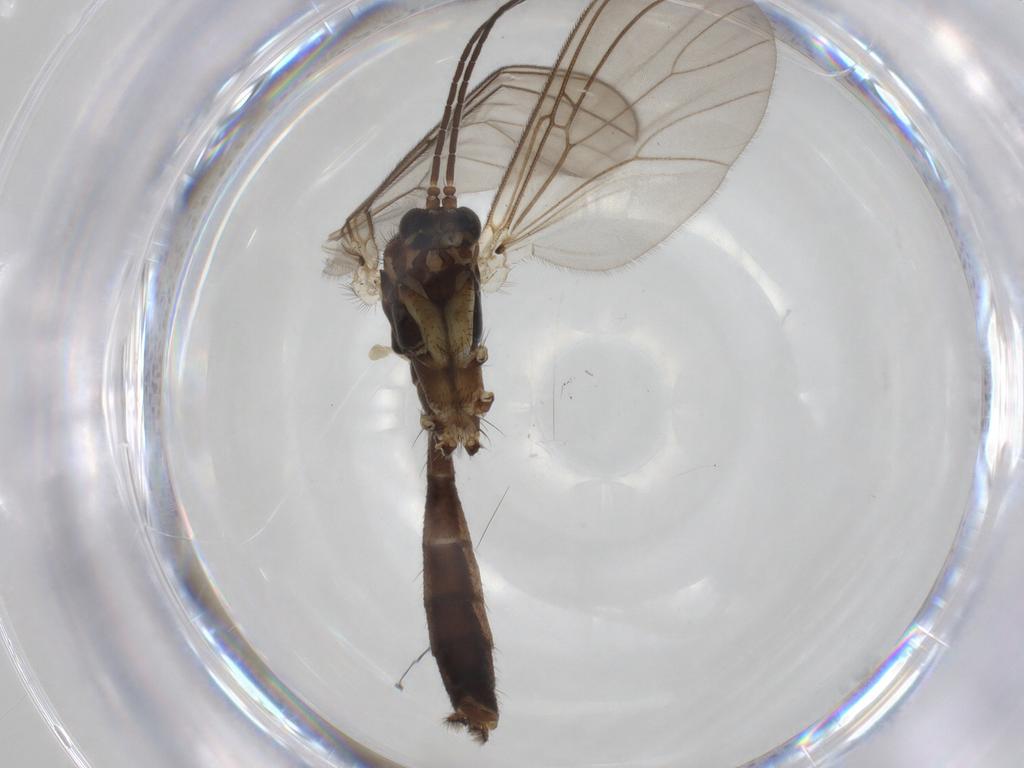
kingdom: Animalia
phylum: Arthropoda
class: Insecta
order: Diptera
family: Mycetophilidae
